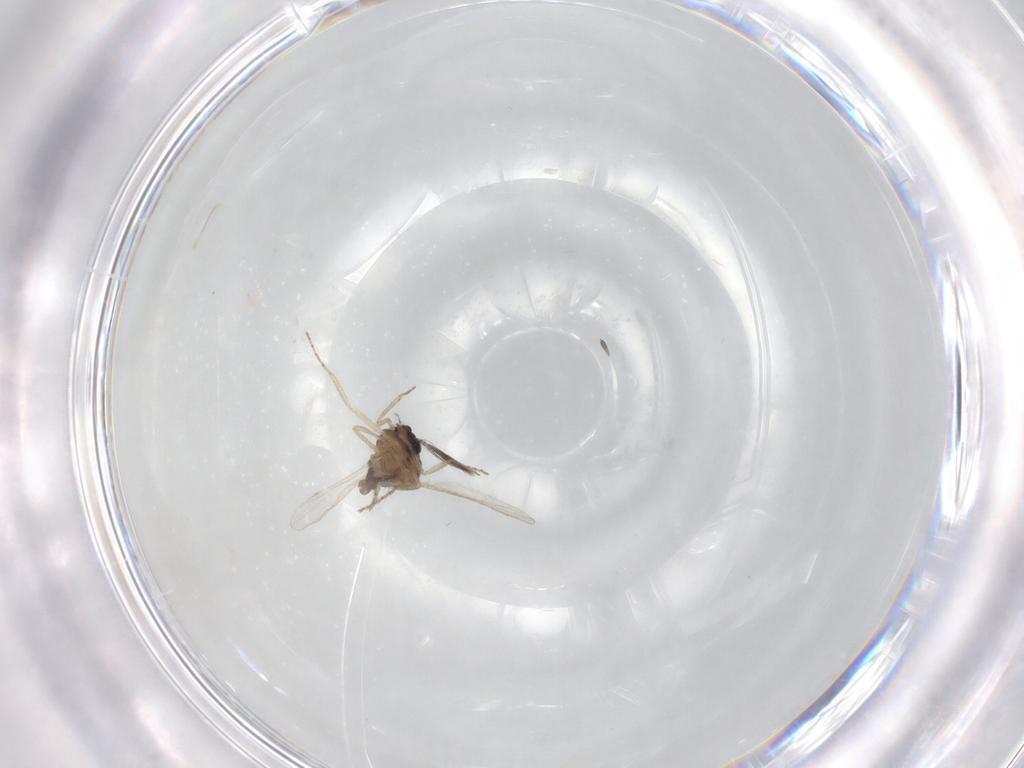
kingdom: Animalia
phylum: Arthropoda
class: Insecta
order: Diptera
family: Ceratopogonidae
